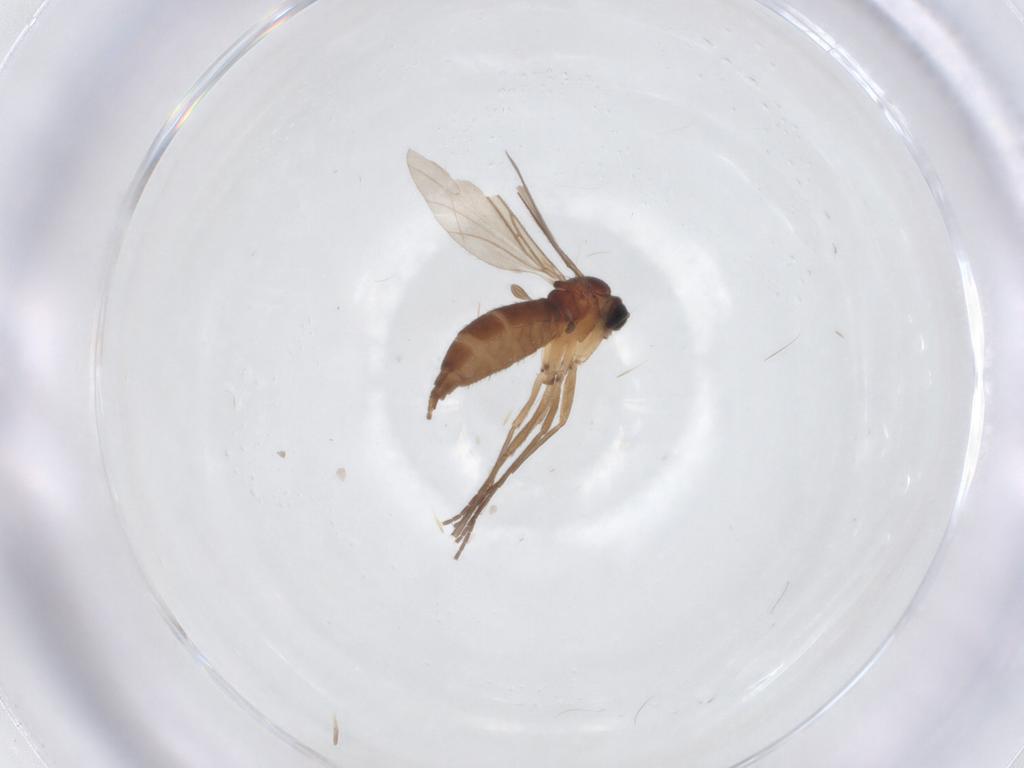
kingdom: Animalia
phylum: Arthropoda
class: Insecta
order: Diptera
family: Sciaridae
